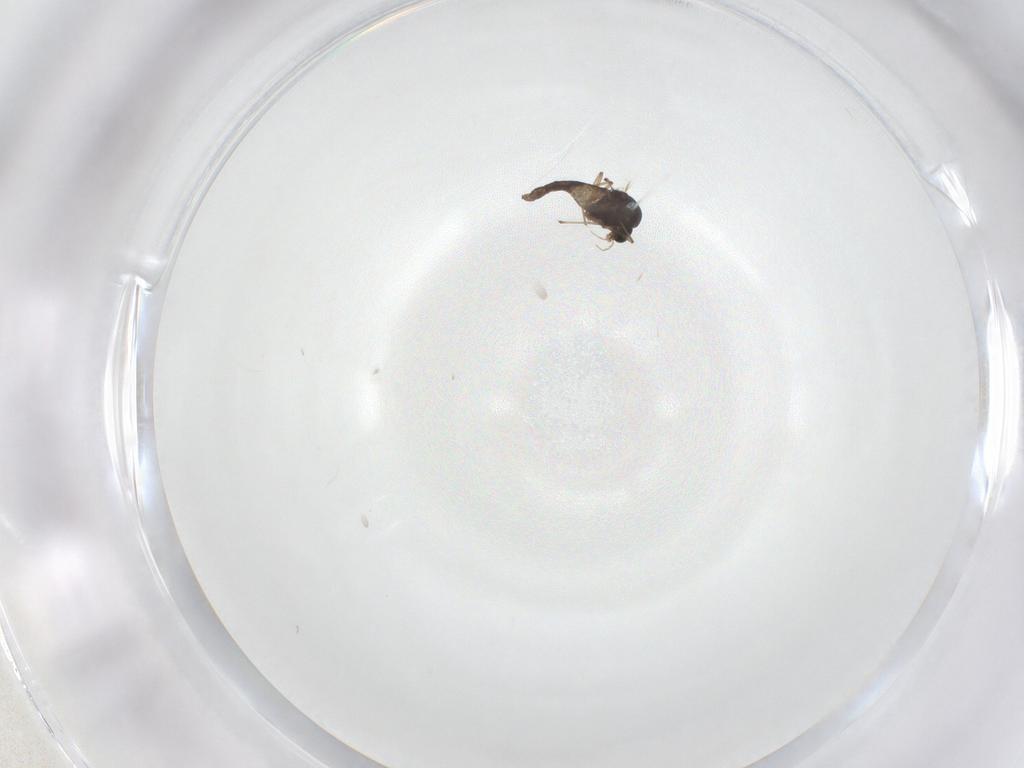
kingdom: Animalia
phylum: Arthropoda
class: Insecta
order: Diptera
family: Chironomidae
